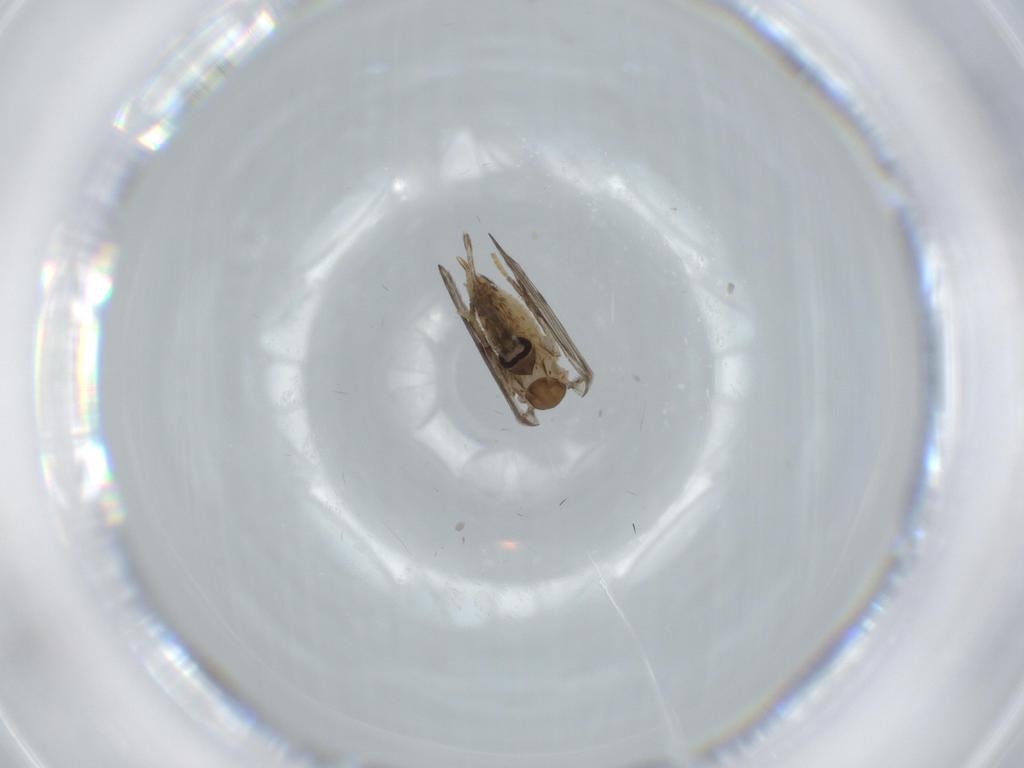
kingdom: Animalia
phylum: Arthropoda
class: Insecta
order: Diptera
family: Chironomidae
